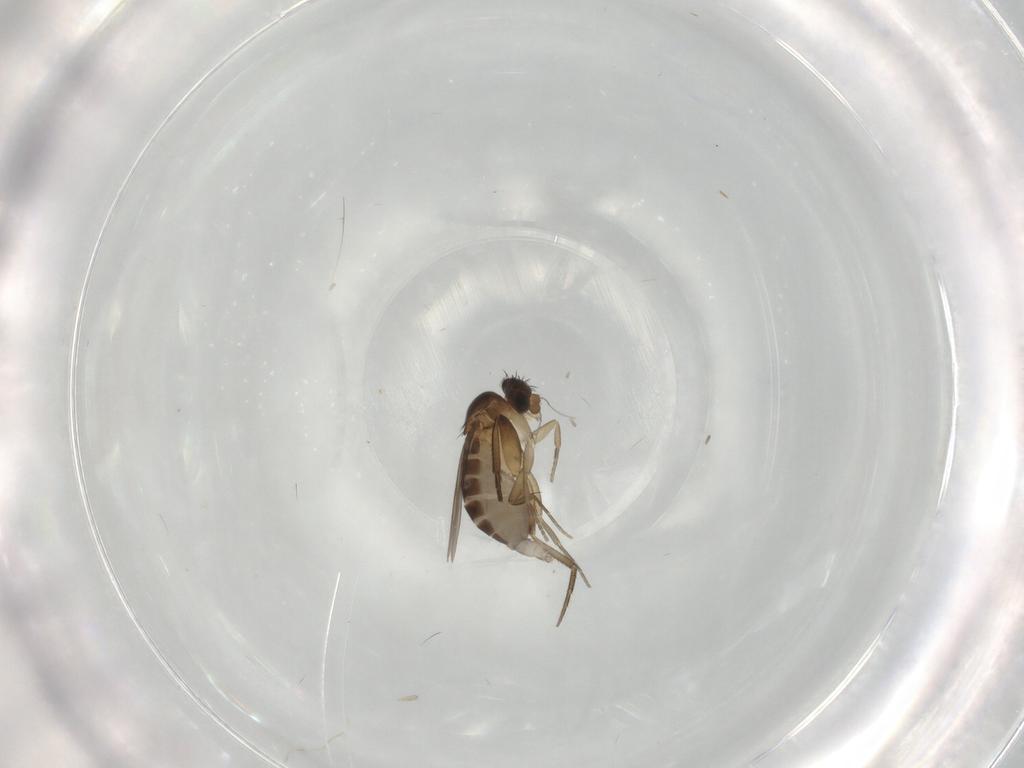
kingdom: Animalia
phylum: Arthropoda
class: Insecta
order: Diptera
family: Phoridae
